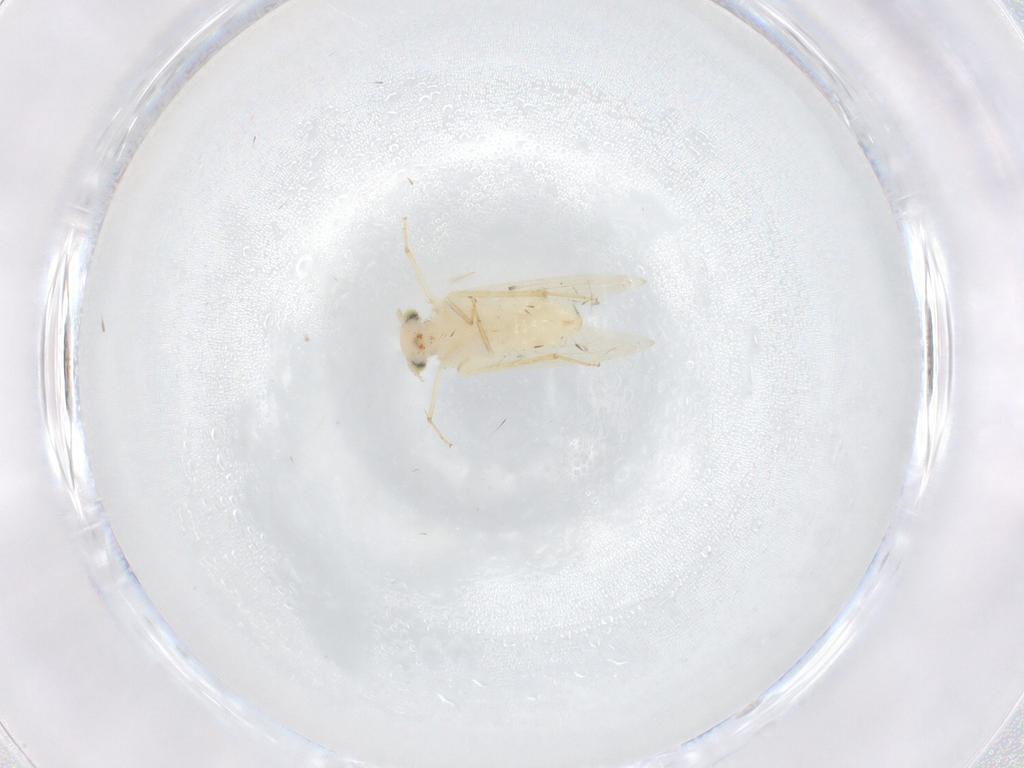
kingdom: Animalia
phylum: Arthropoda
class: Insecta
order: Psocodea
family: Lepidopsocidae
